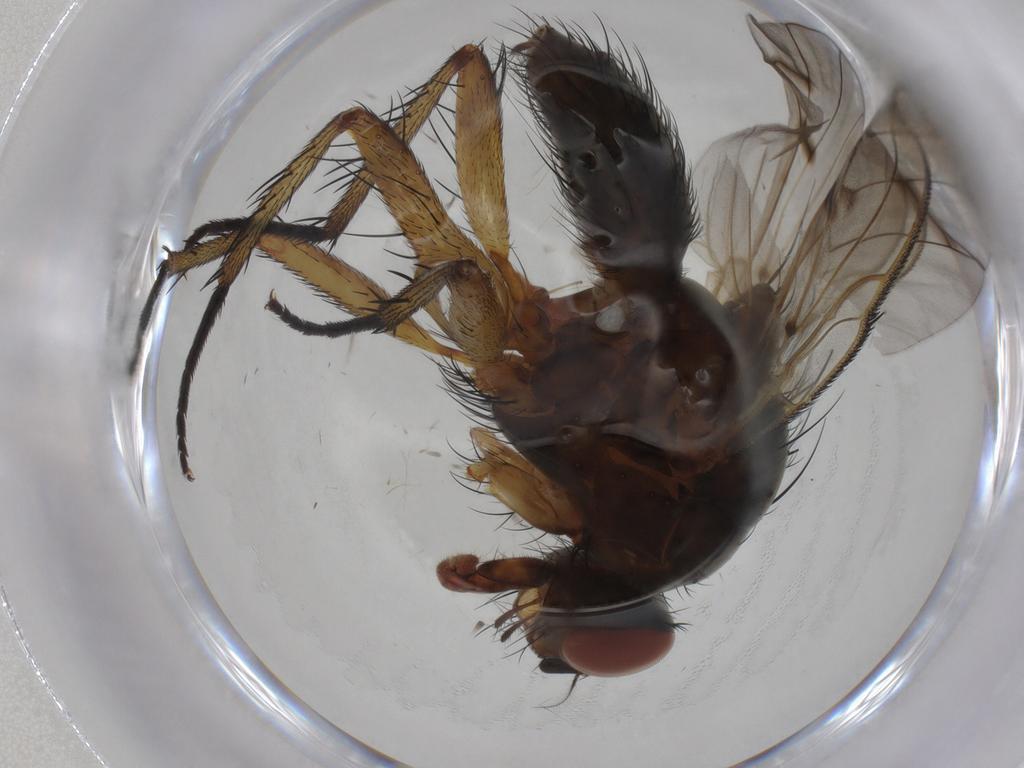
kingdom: Animalia
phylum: Arthropoda
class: Insecta
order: Diptera
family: Anthomyiidae
